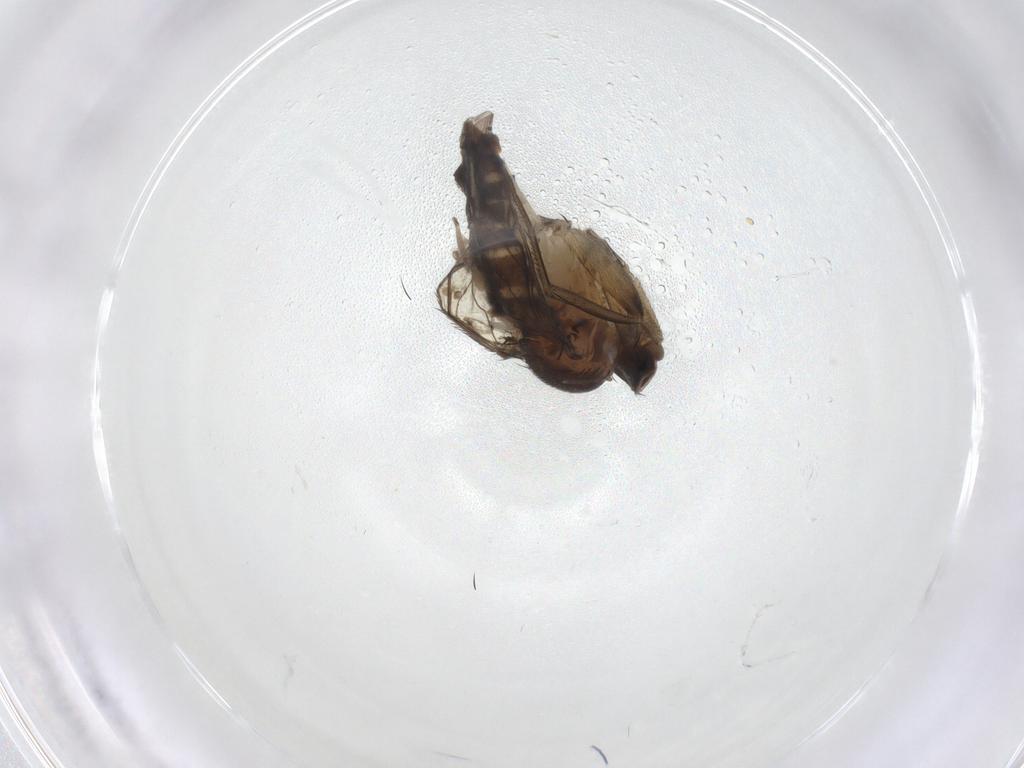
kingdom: Animalia
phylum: Arthropoda
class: Insecta
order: Diptera
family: Phoridae
